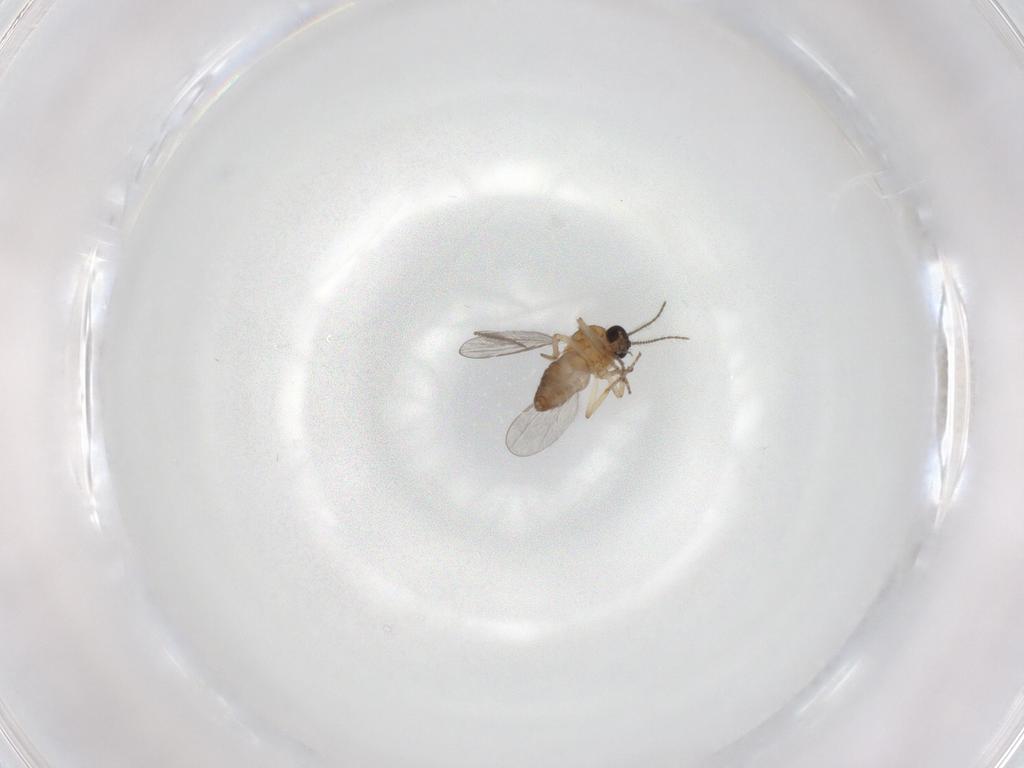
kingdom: Animalia
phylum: Arthropoda
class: Insecta
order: Diptera
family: Ceratopogonidae
